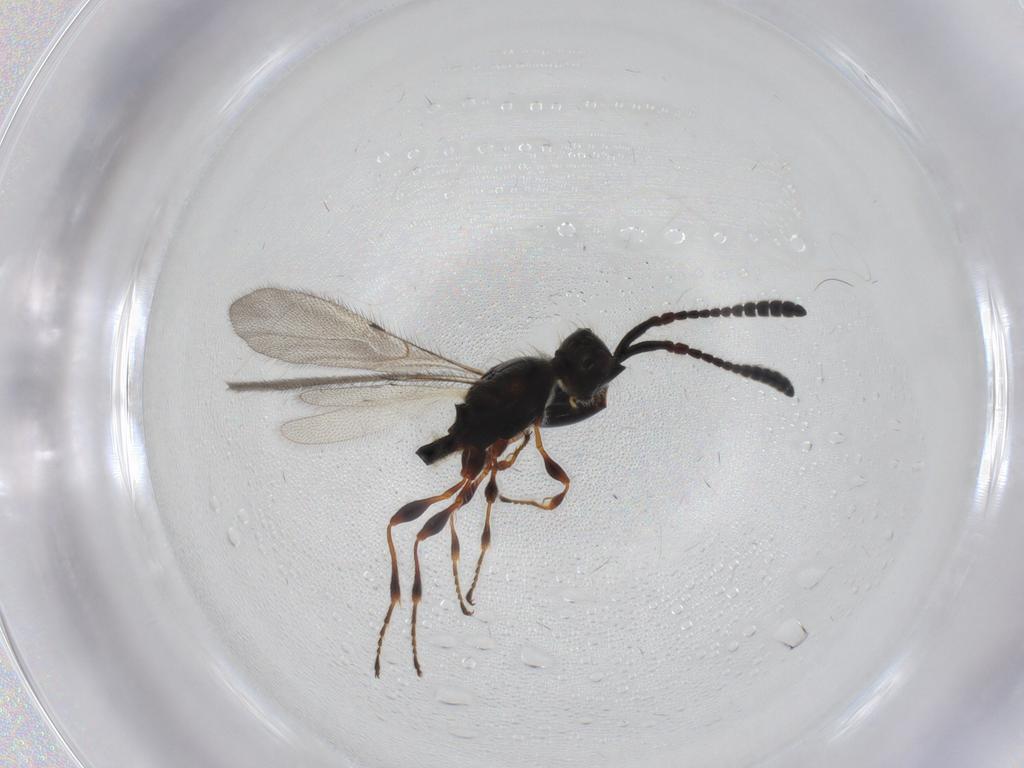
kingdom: Animalia
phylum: Arthropoda
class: Insecta
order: Hymenoptera
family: Diapriidae
